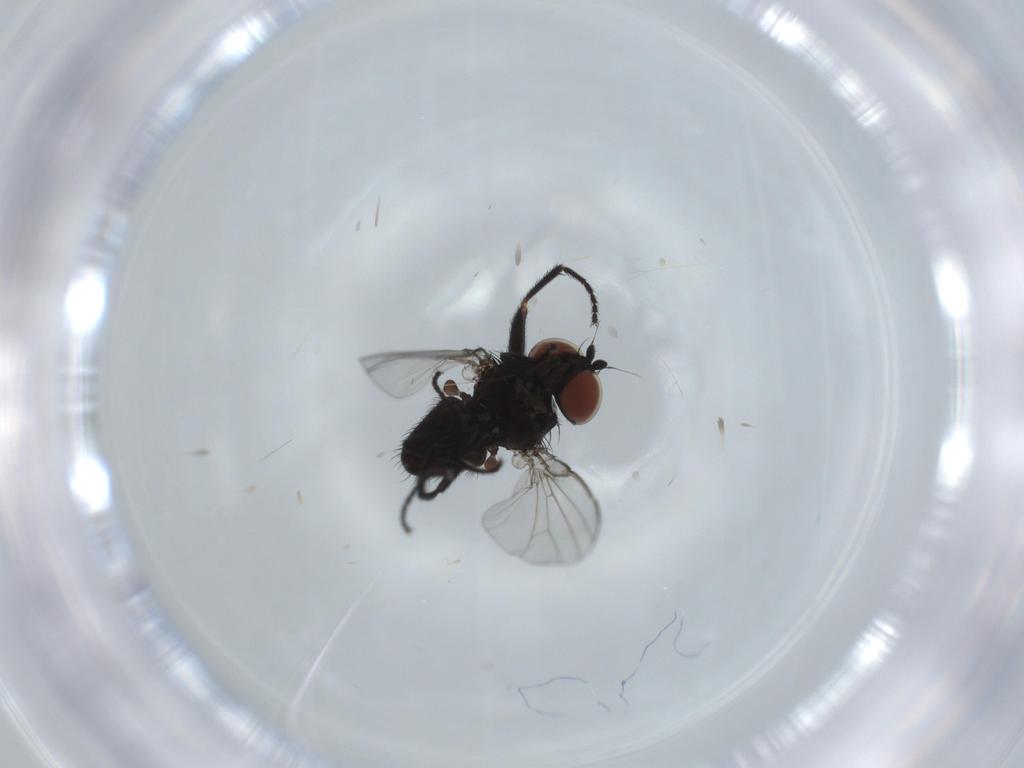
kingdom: Animalia
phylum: Arthropoda
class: Insecta
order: Diptera
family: Milichiidae
